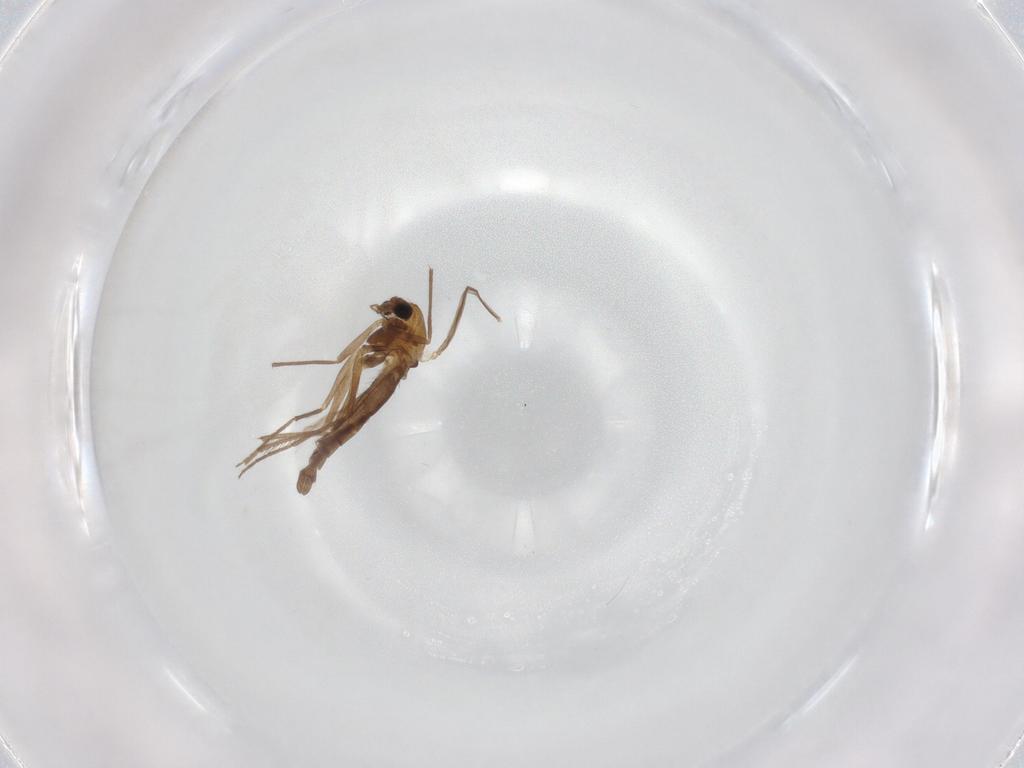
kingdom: Animalia
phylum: Arthropoda
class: Insecta
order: Diptera
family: Chironomidae
